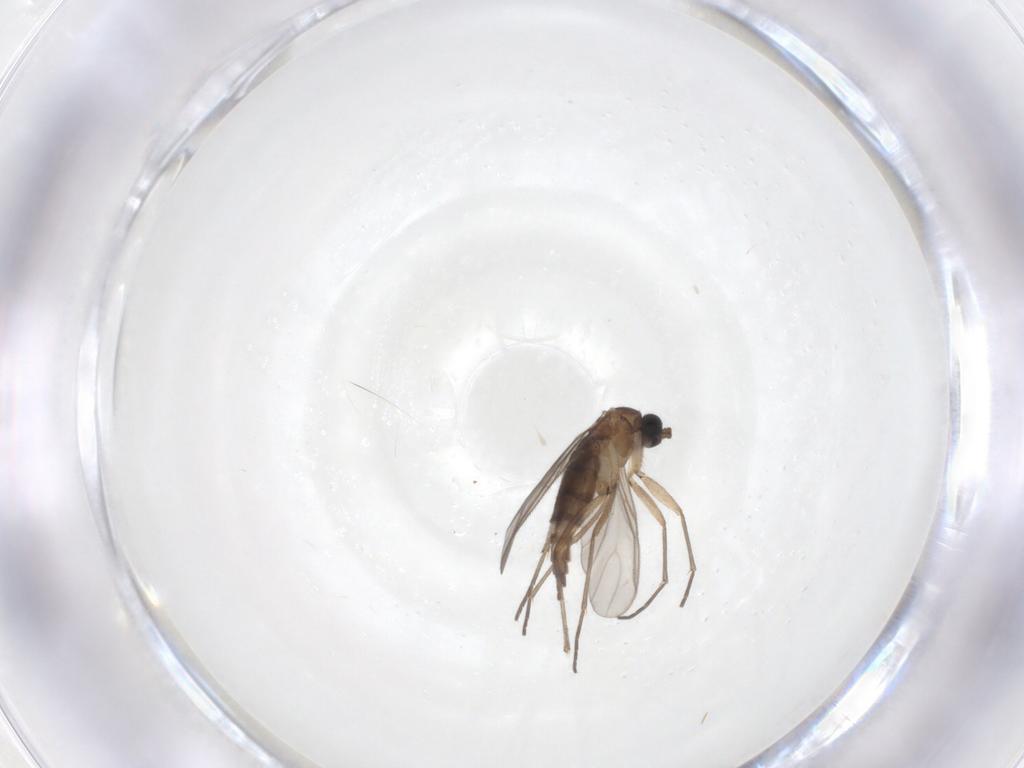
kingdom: Animalia
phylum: Arthropoda
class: Insecta
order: Diptera
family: Sciaridae
